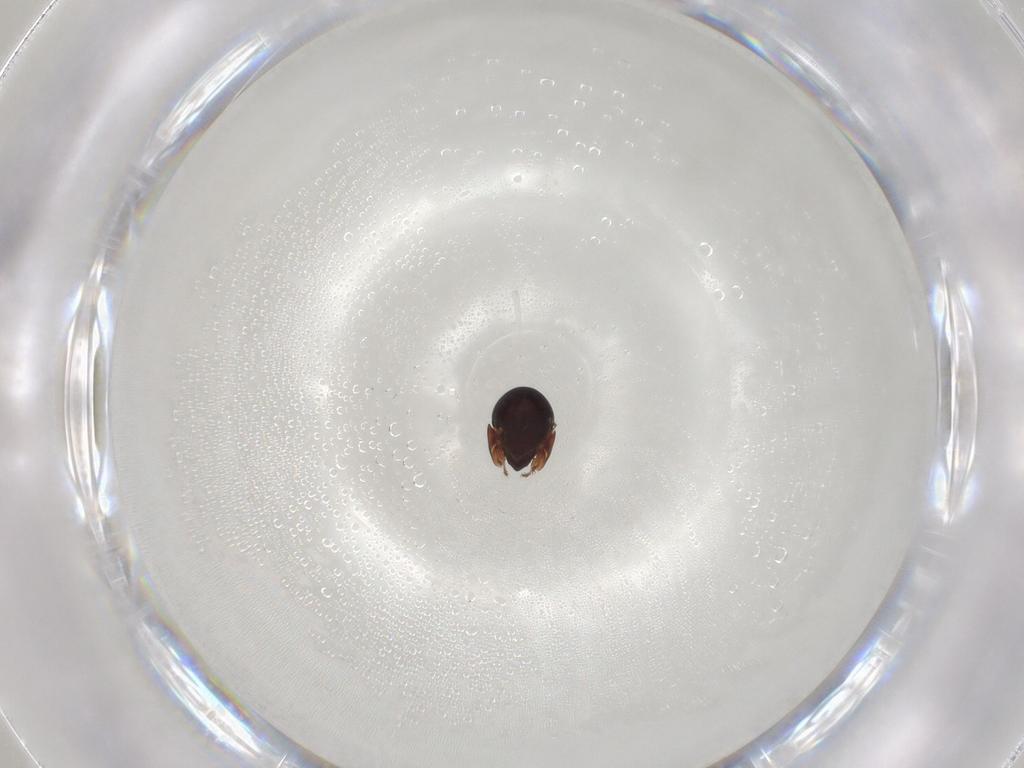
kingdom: Animalia
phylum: Arthropoda
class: Arachnida
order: Sarcoptiformes
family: Galumnidae
